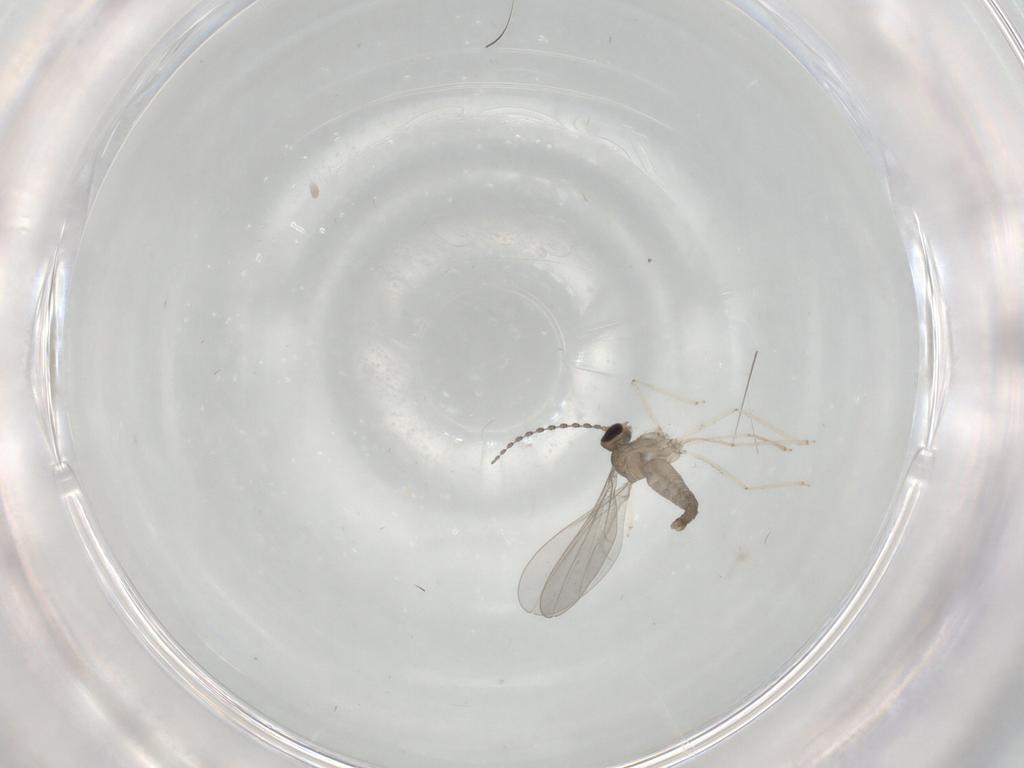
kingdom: Animalia
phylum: Arthropoda
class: Insecta
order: Diptera
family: Cecidomyiidae
